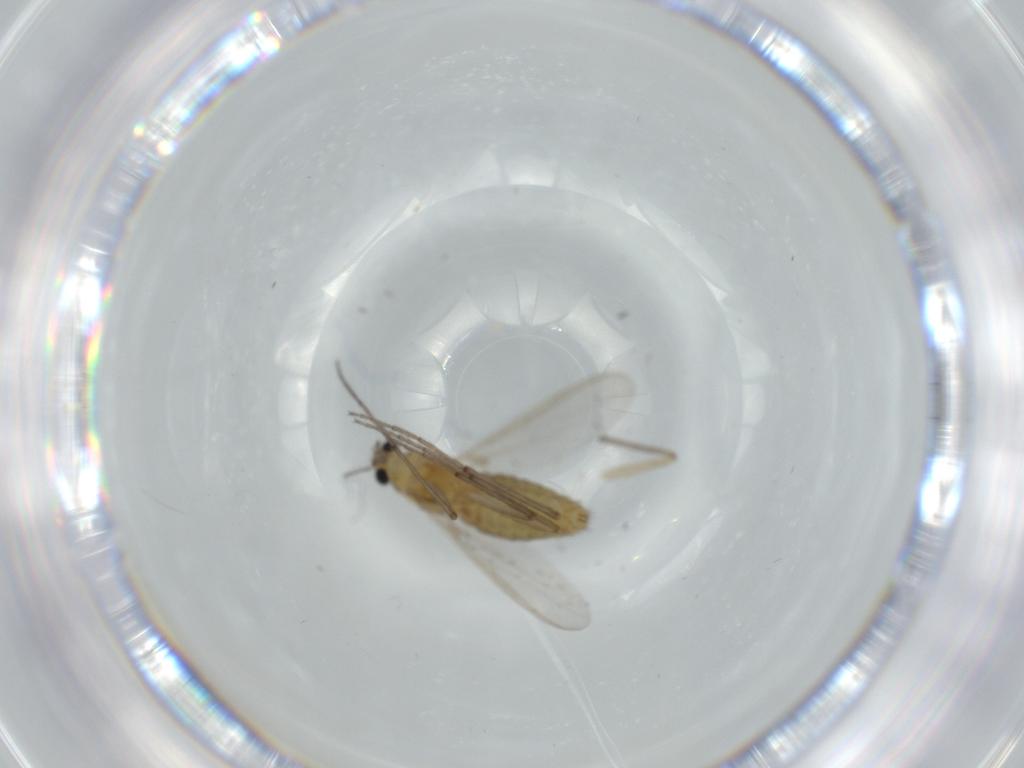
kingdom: Animalia
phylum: Arthropoda
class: Insecta
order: Diptera
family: Chironomidae
